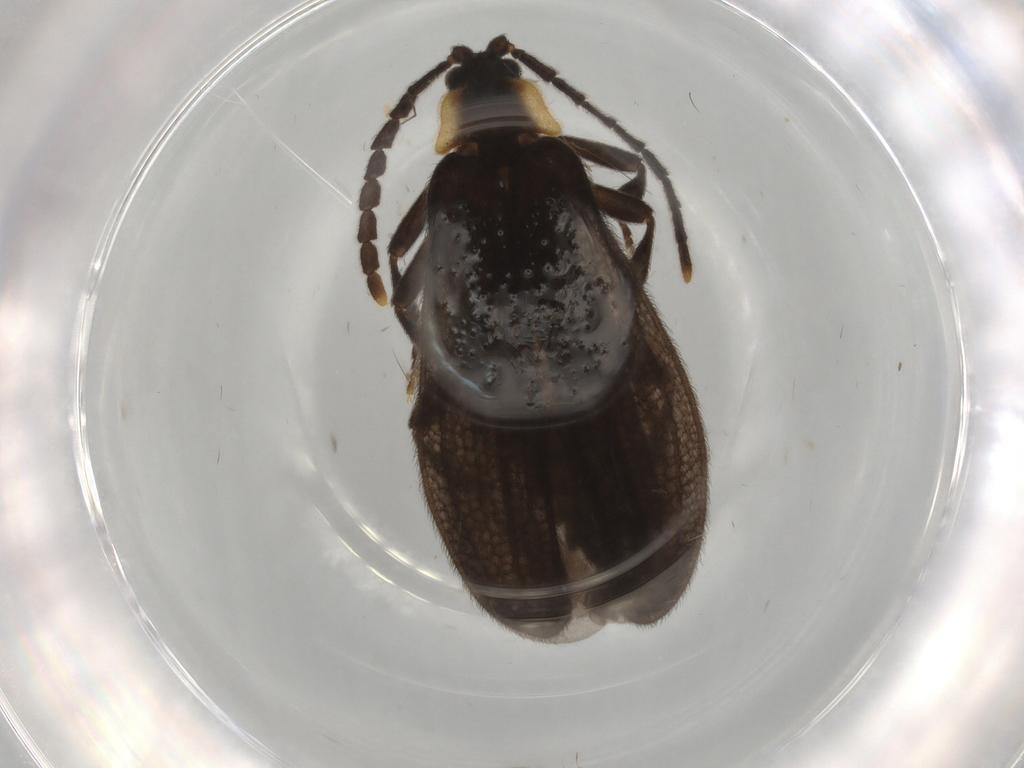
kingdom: Animalia
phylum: Arthropoda
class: Insecta
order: Coleoptera
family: Lycidae
